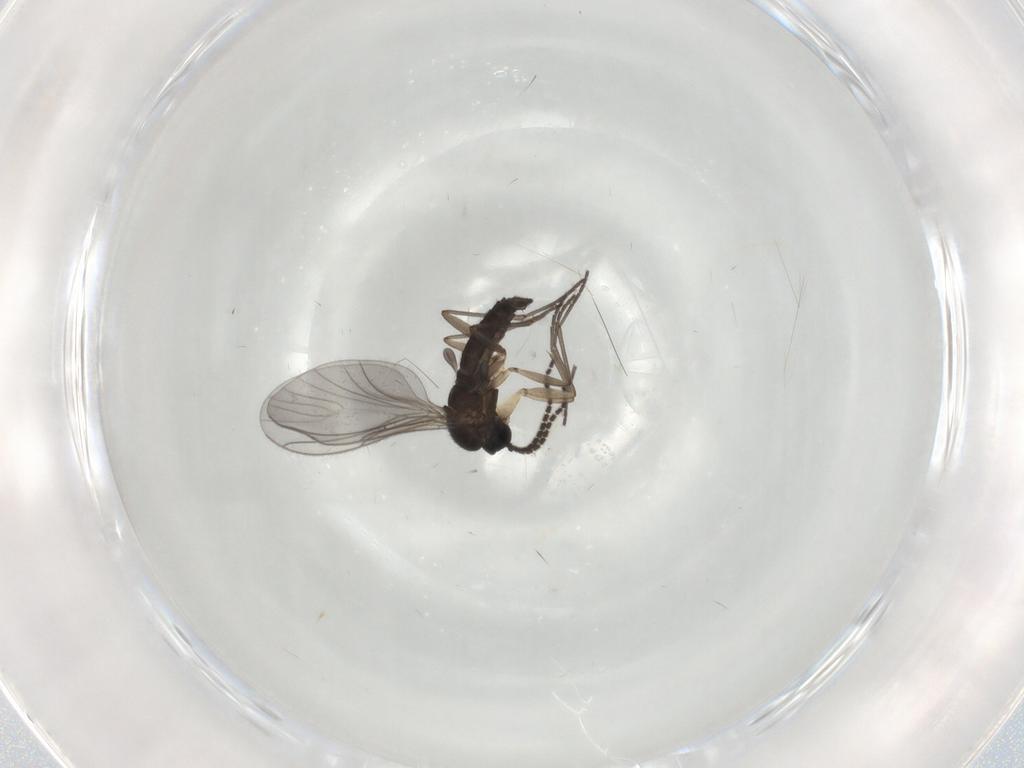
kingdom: Animalia
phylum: Arthropoda
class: Insecta
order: Diptera
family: Sciaridae
